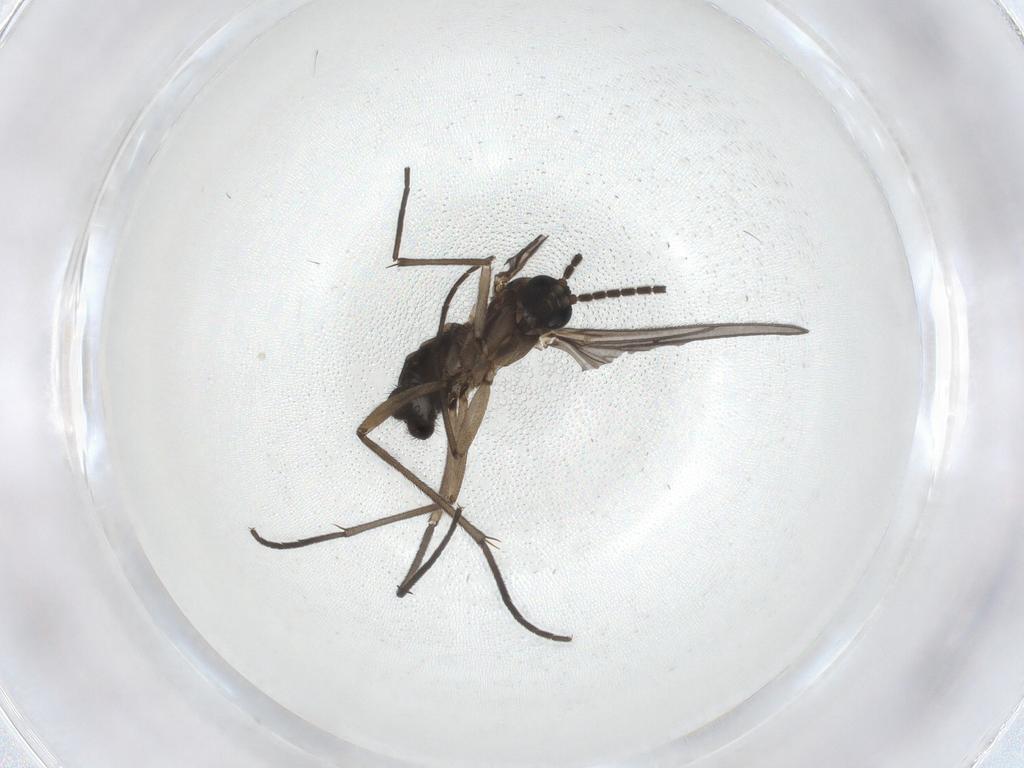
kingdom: Animalia
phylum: Arthropoda
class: Insecta
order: Diptera
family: Sciaridae
